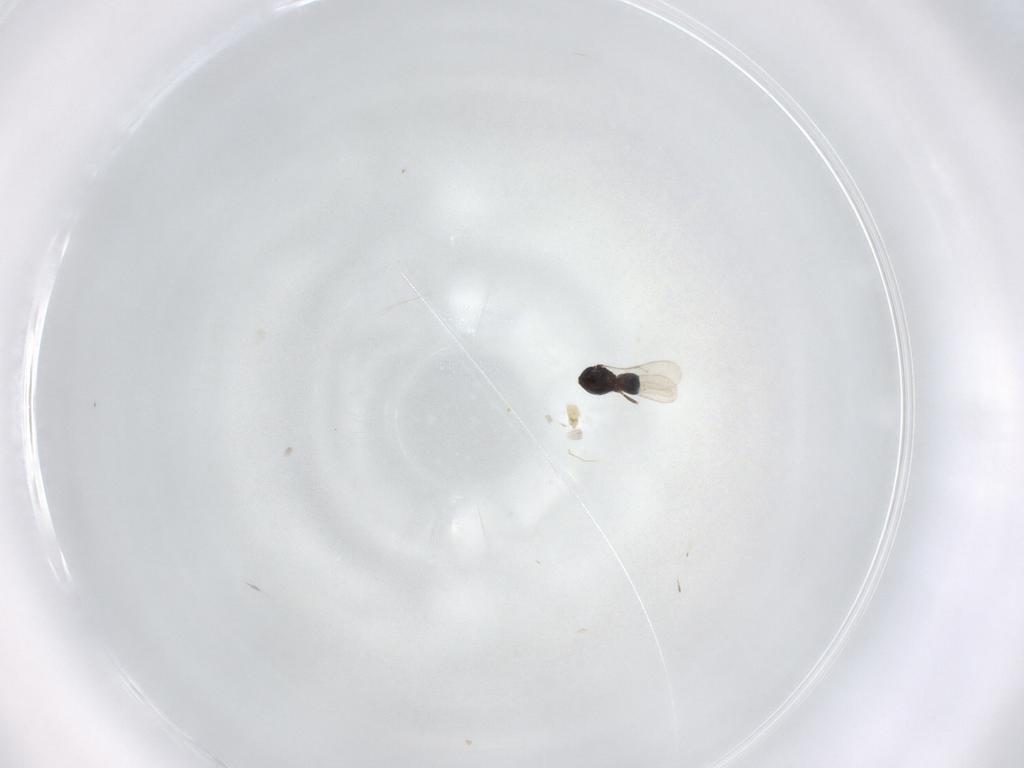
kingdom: Animalia
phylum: Arthropoda
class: Insecta
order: Hymenoptera
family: Scelionidae
